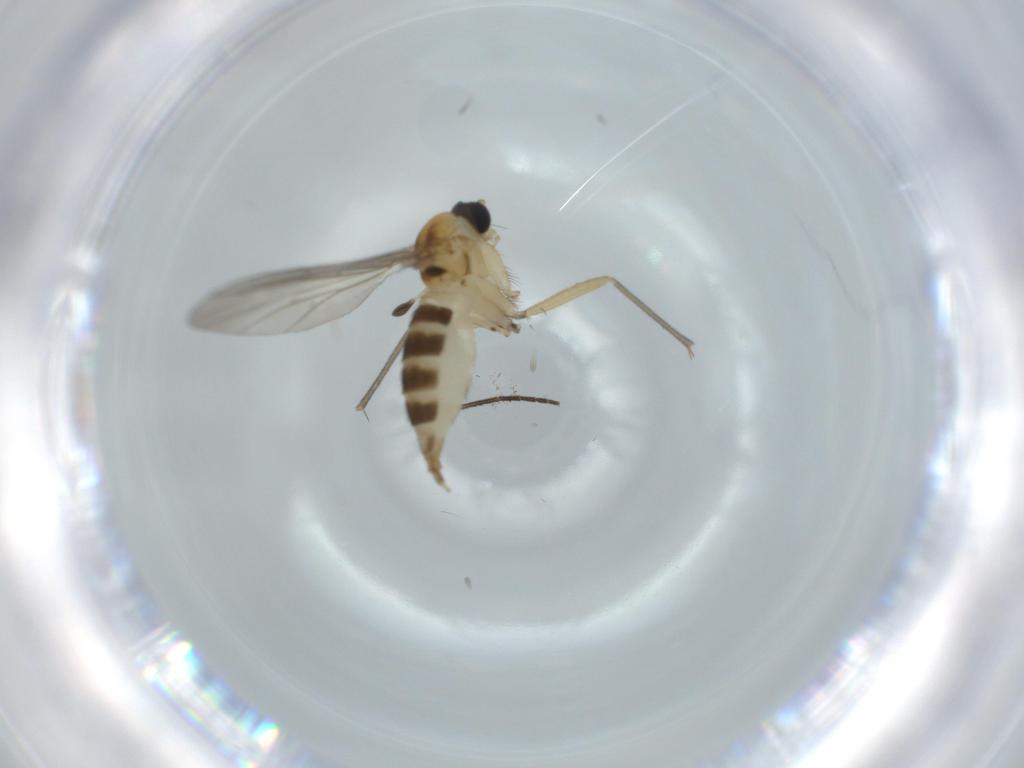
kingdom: Animalia
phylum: Arthropoda
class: Insecta
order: Diptera
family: Sciaridae
